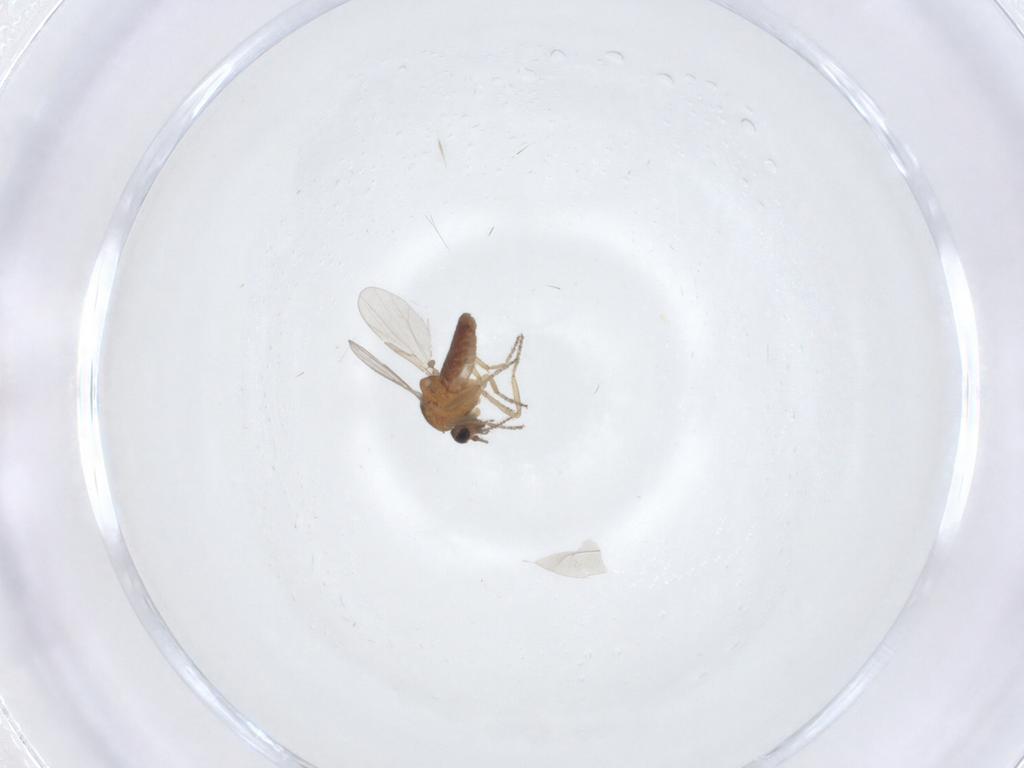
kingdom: Animalia
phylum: Arthropoda
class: Insecta
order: Diptera
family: Ceratopogonidae
